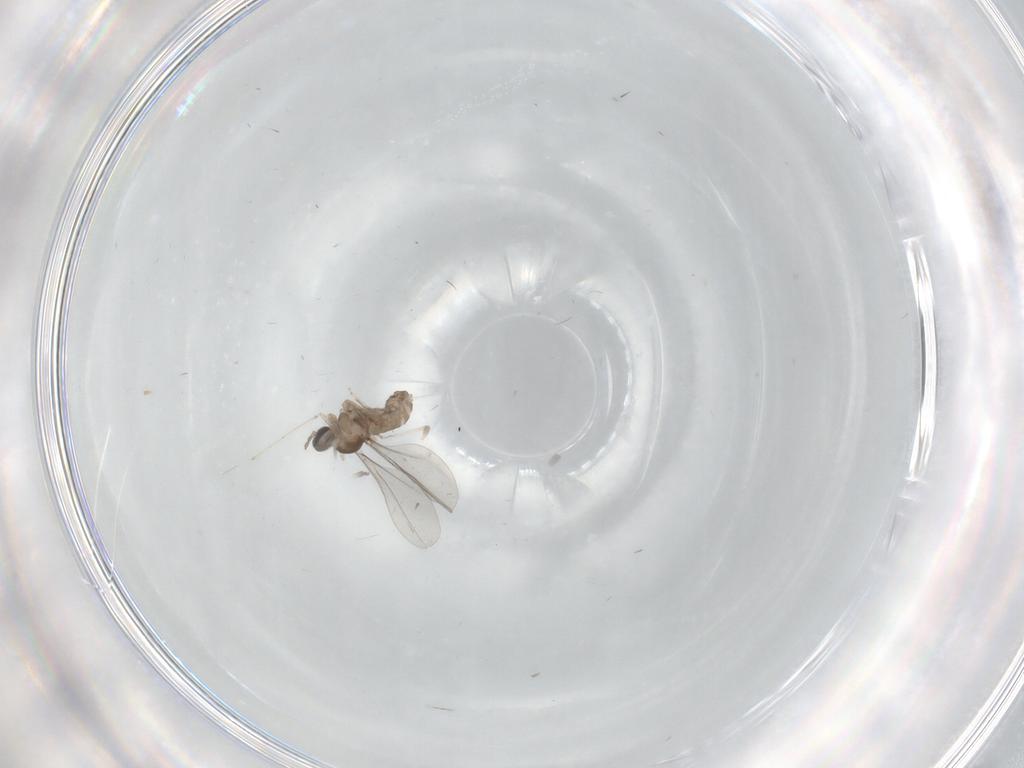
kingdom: Animalia
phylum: Arthropoda
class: Insecta
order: Diptera
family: Cecidomyiidae
